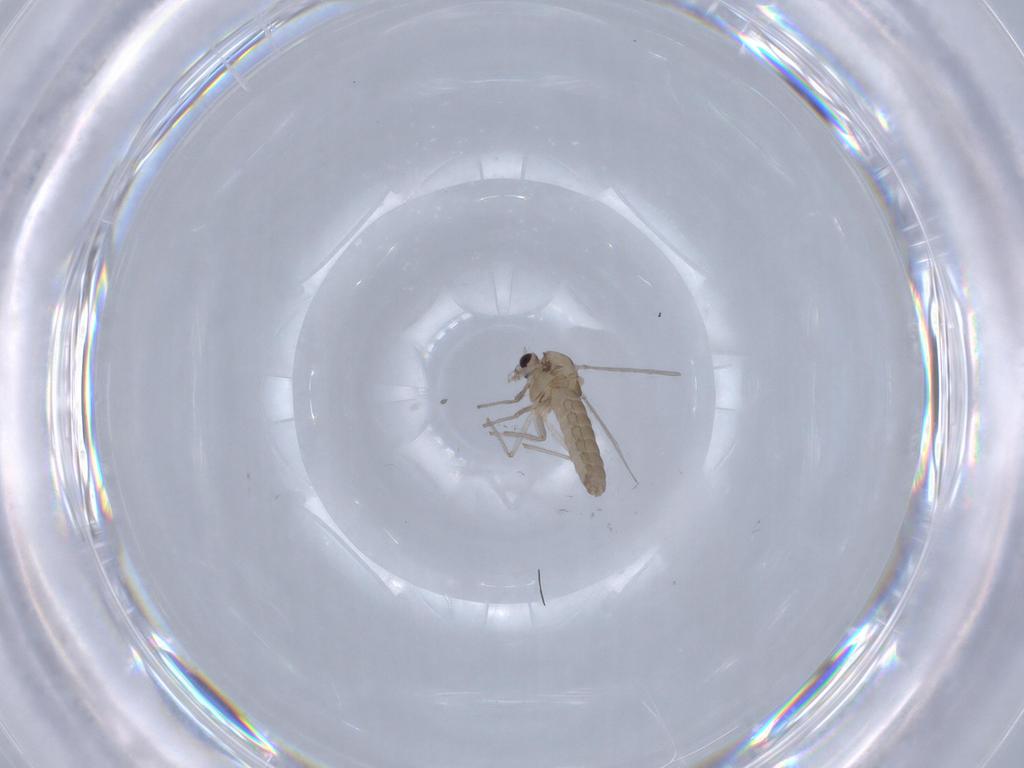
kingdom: Animalia
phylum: Arthropoda
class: Insecta
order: Diptera
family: Chironomidae
